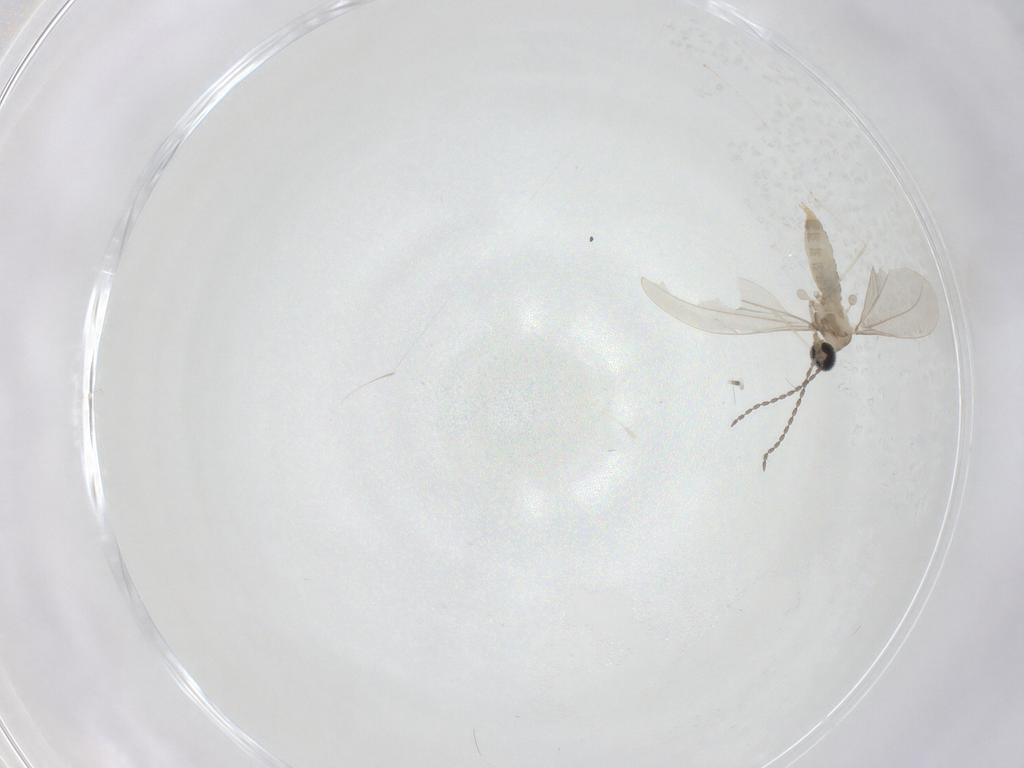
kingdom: Animalia
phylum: Arthropoda
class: Insecta
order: Diptera
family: Cecidomyiidae
